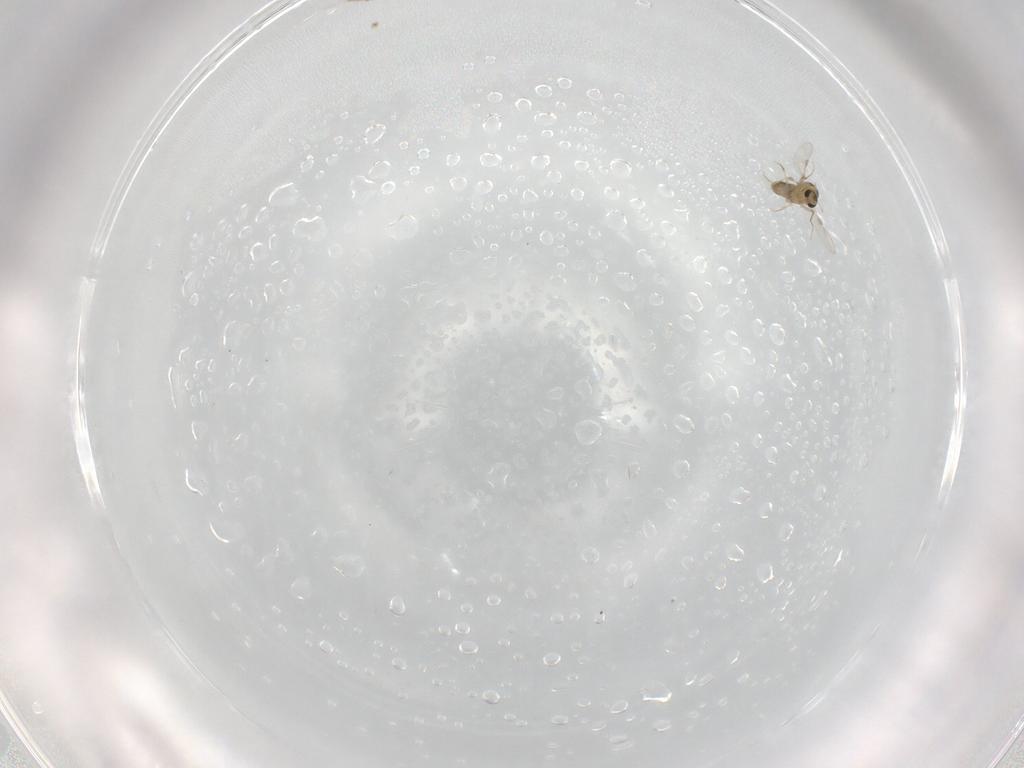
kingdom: Animalia
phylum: Arthropoda
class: Insecta
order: Diptera
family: Chironomidae
